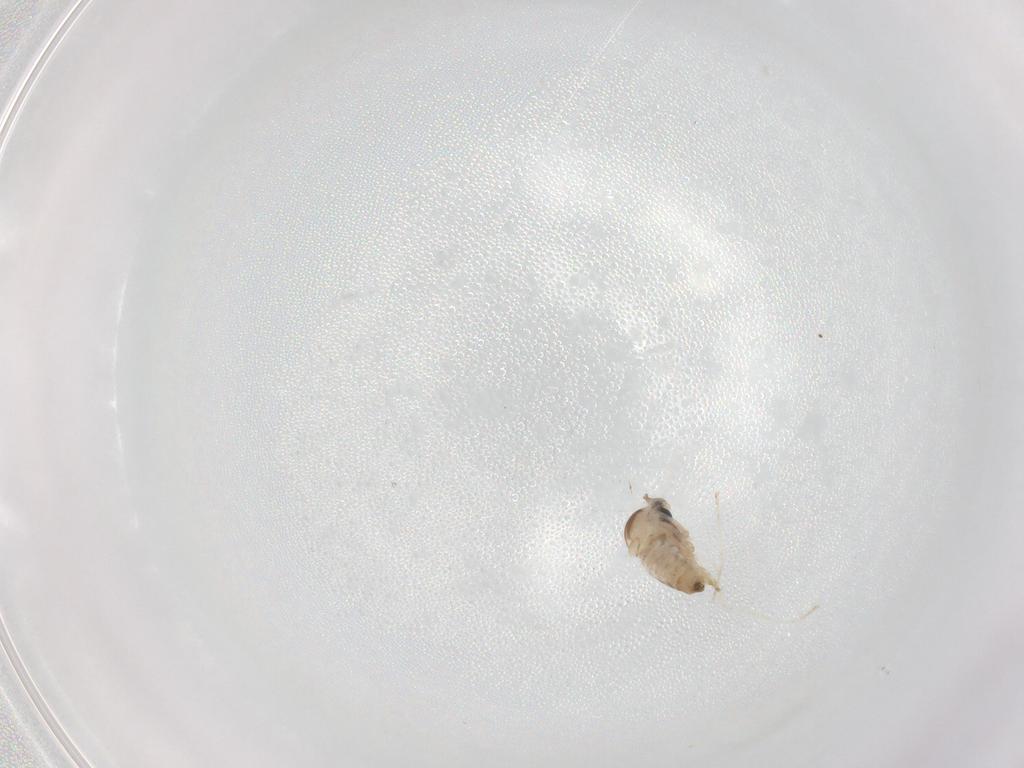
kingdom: Animalia
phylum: Arthropoda
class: Insecta
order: Diptera
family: Cecidomyiidae
